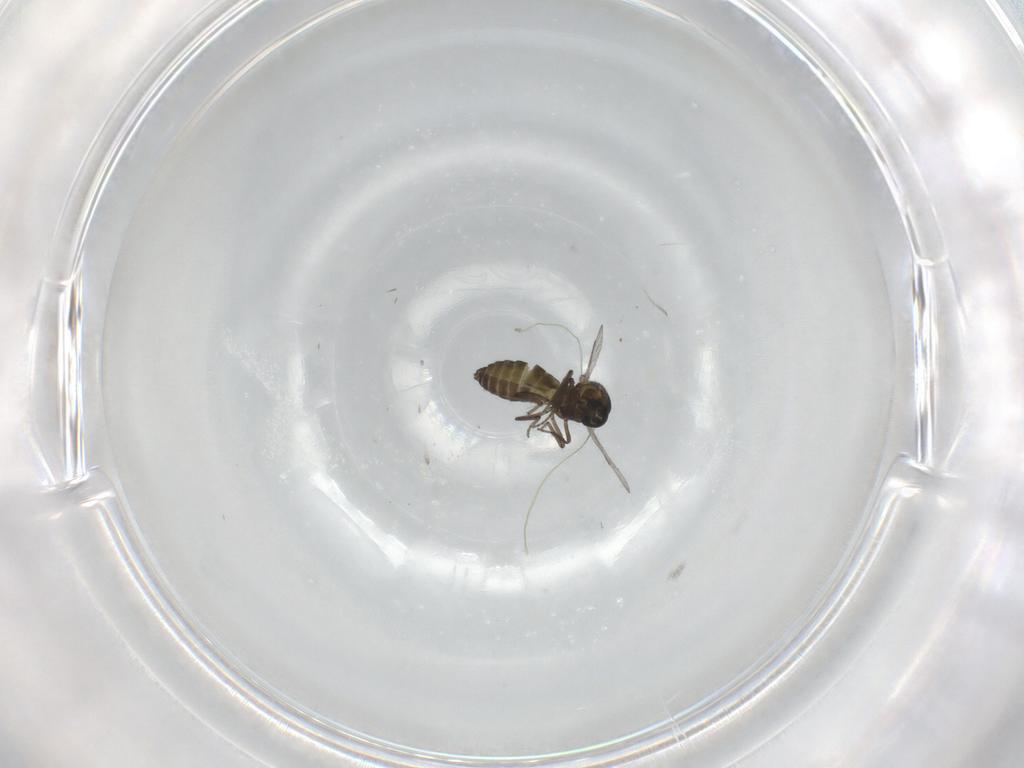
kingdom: Animalia
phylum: Arthropoda
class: Insecta
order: Diptera
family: Ceratopogonidae
